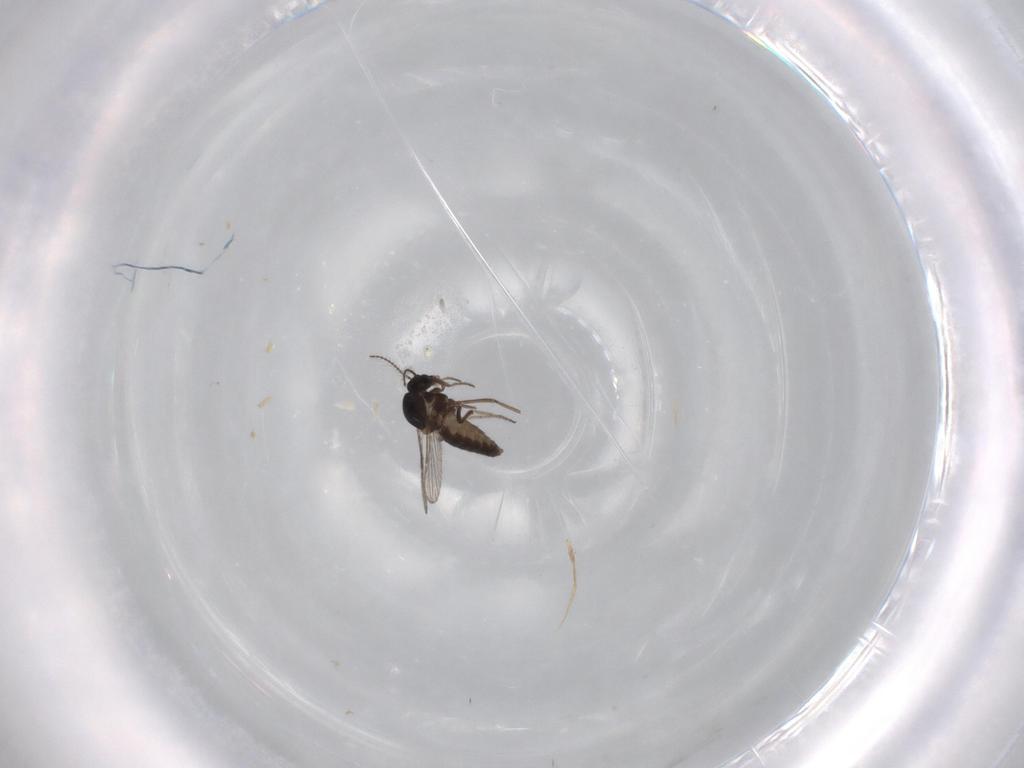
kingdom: Animalia
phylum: Arthropoda
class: Insecta
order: Diptera
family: Ceratopogonidae
